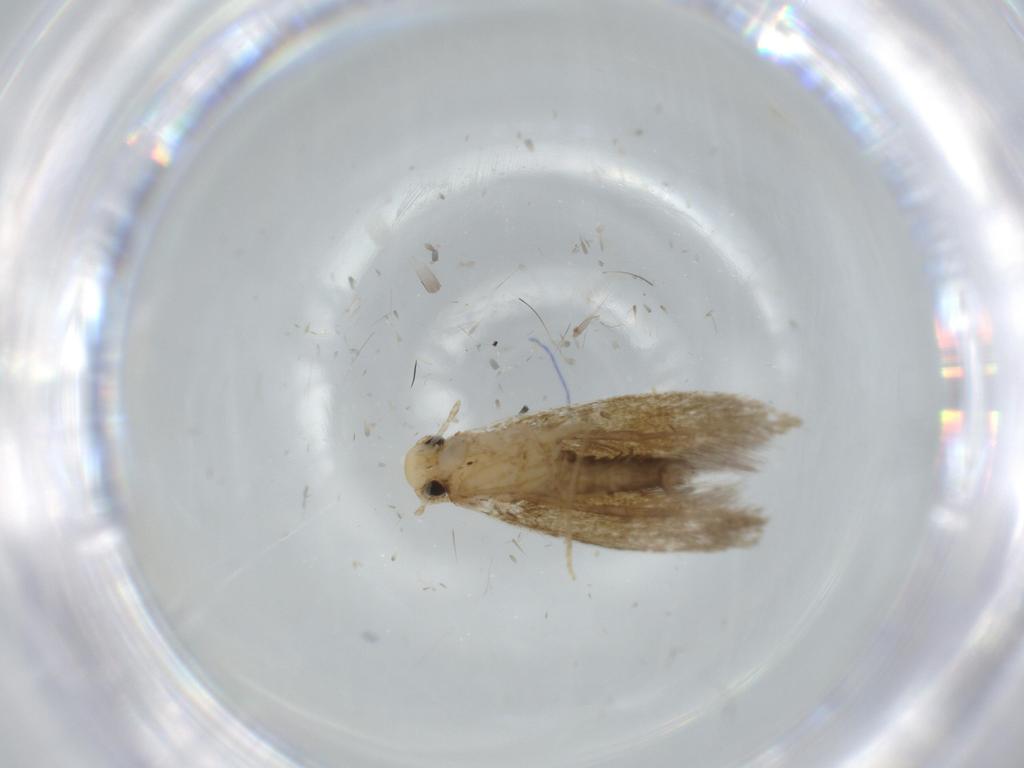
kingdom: Animalia
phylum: Arthropoda
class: Insecta
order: Lepidoptera
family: Tineidae
